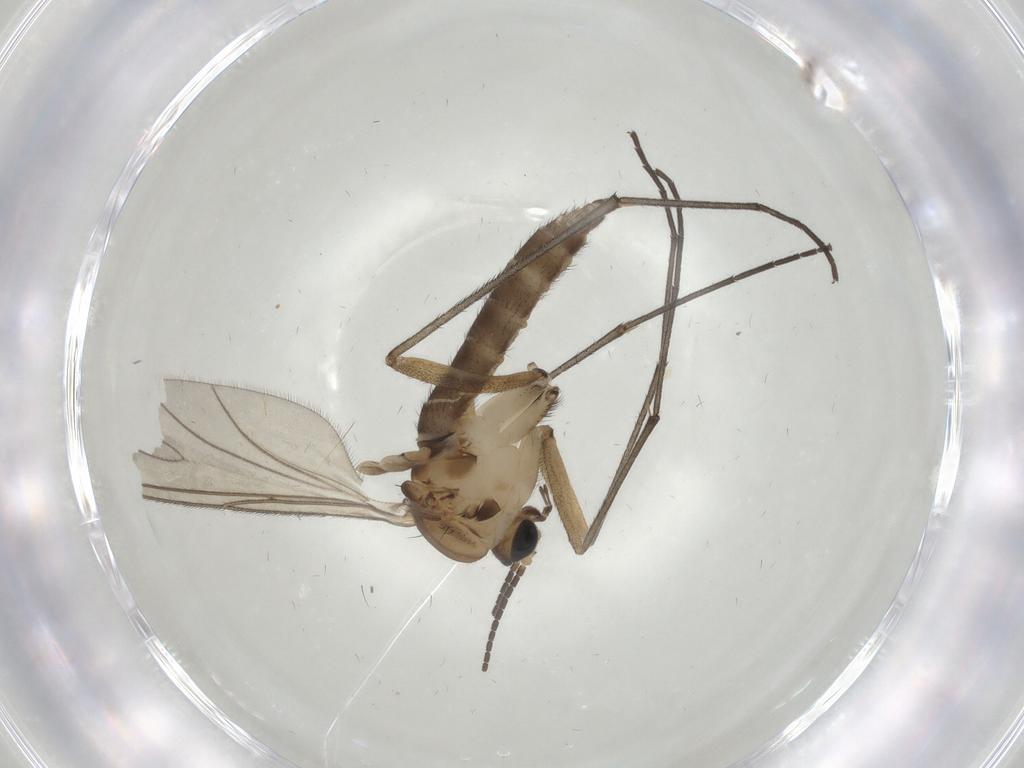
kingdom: Animalia
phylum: Arthropoda
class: Insecta
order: Diptera
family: Sciaridae
